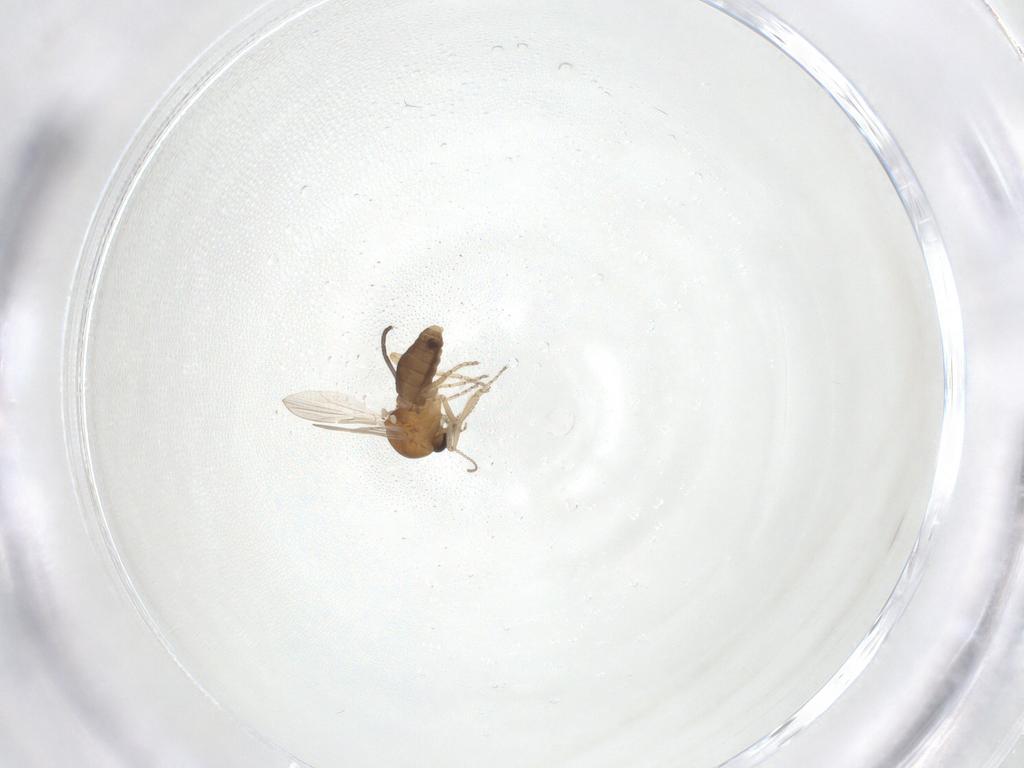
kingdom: Animalia
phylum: Arthropoda
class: Insecta
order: Diptera
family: Ceratopogonidae
